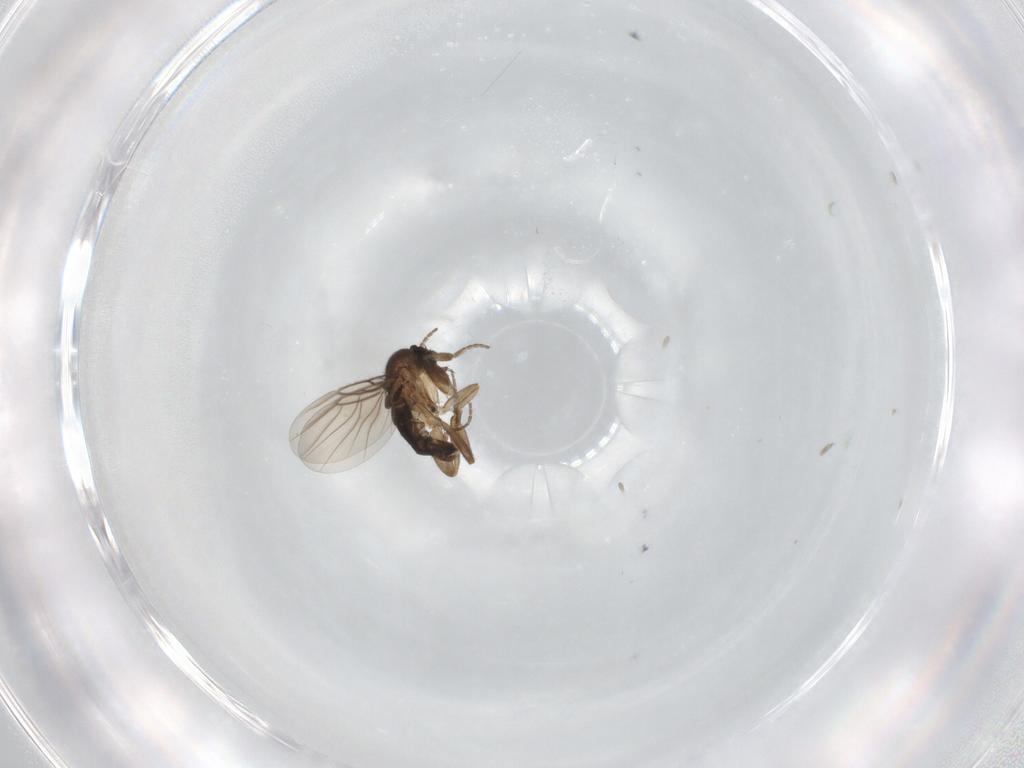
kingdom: Animalia
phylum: Arthropoda
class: Insecta
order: Diptera
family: Phoridae
